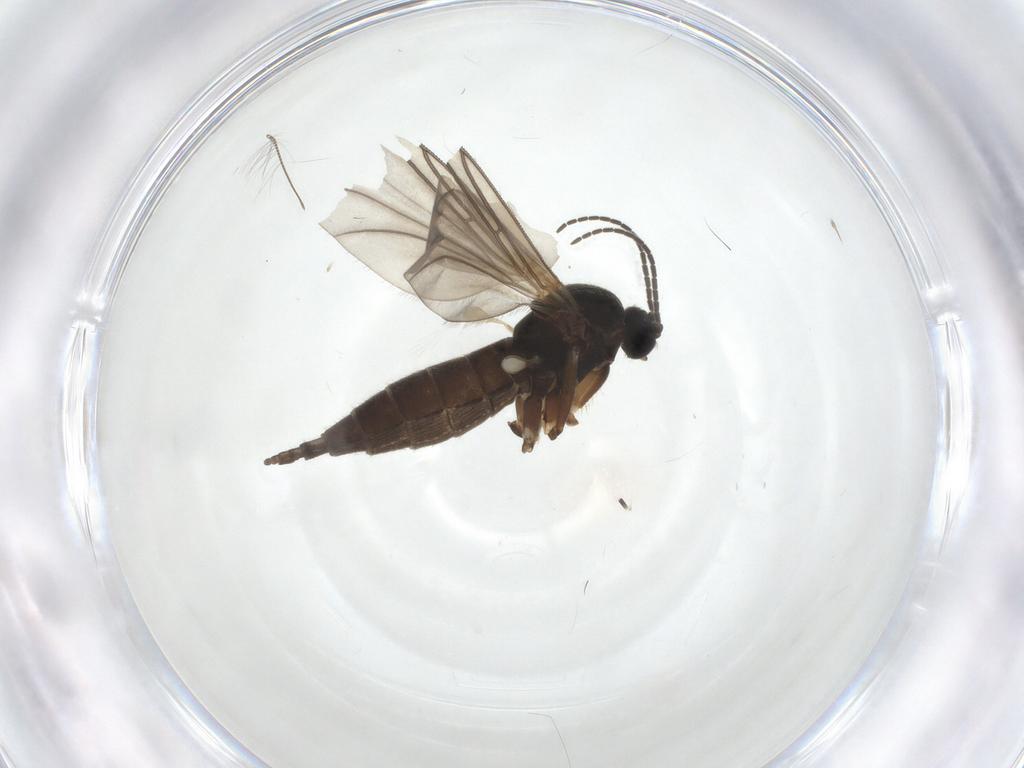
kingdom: Animalia
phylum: Arthropoda
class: Insecta
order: Diptera
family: Sciaridae
